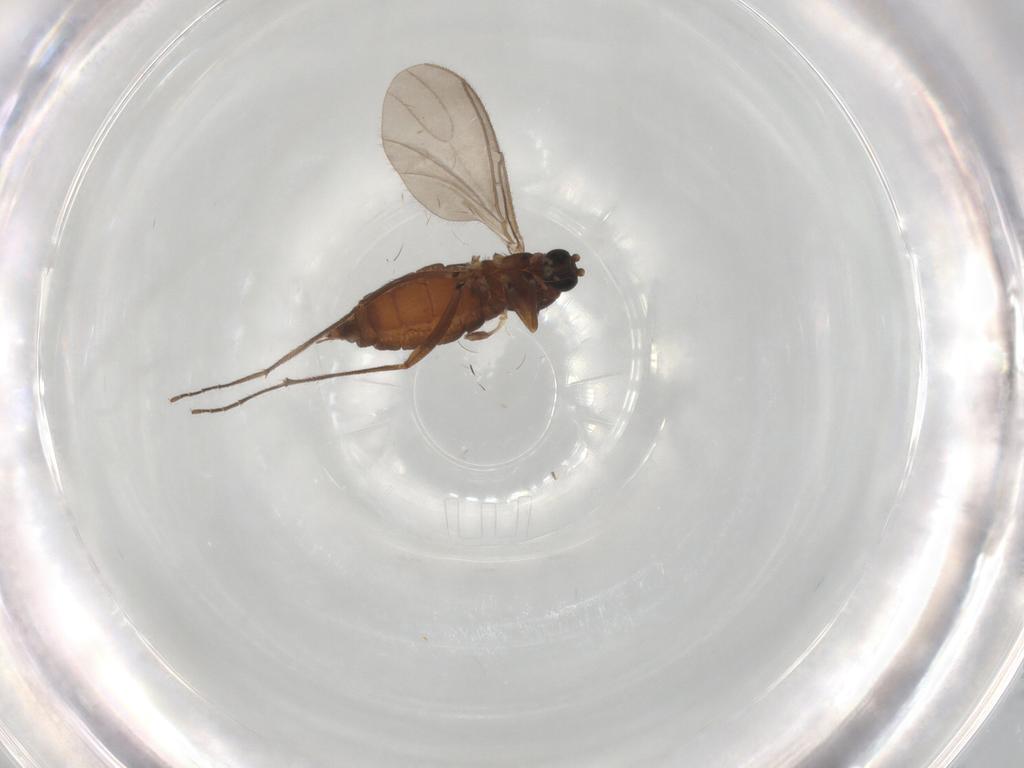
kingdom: Animalia
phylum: Arthropoda
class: Insecta
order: Diptera
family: Sciaridae
